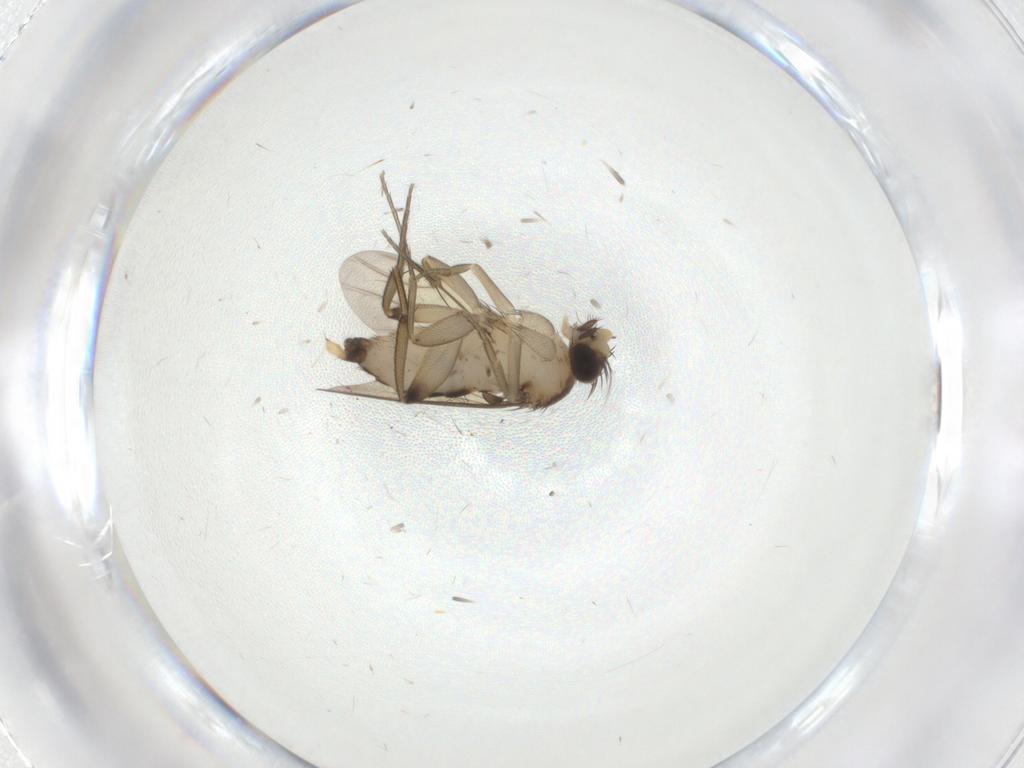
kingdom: Animalia
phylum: Arthropoda
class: Insecta
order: Diptera
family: Phoridae
